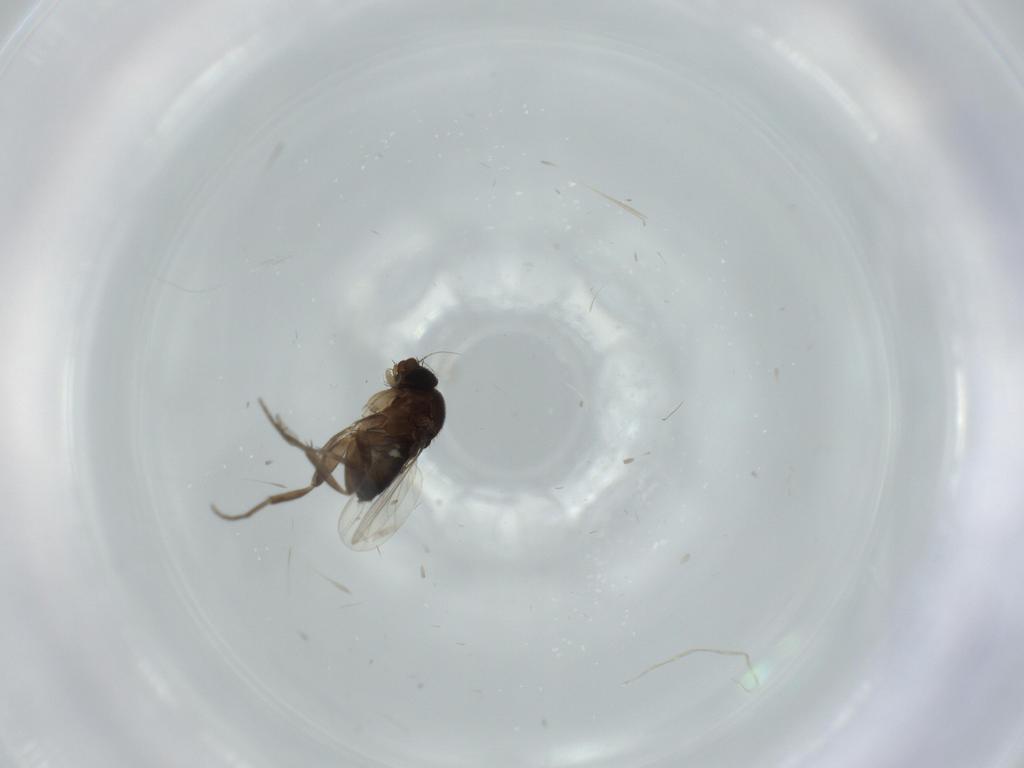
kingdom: Animalia
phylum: Arthropoda
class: Insecta
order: Diptera
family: Phoridae
